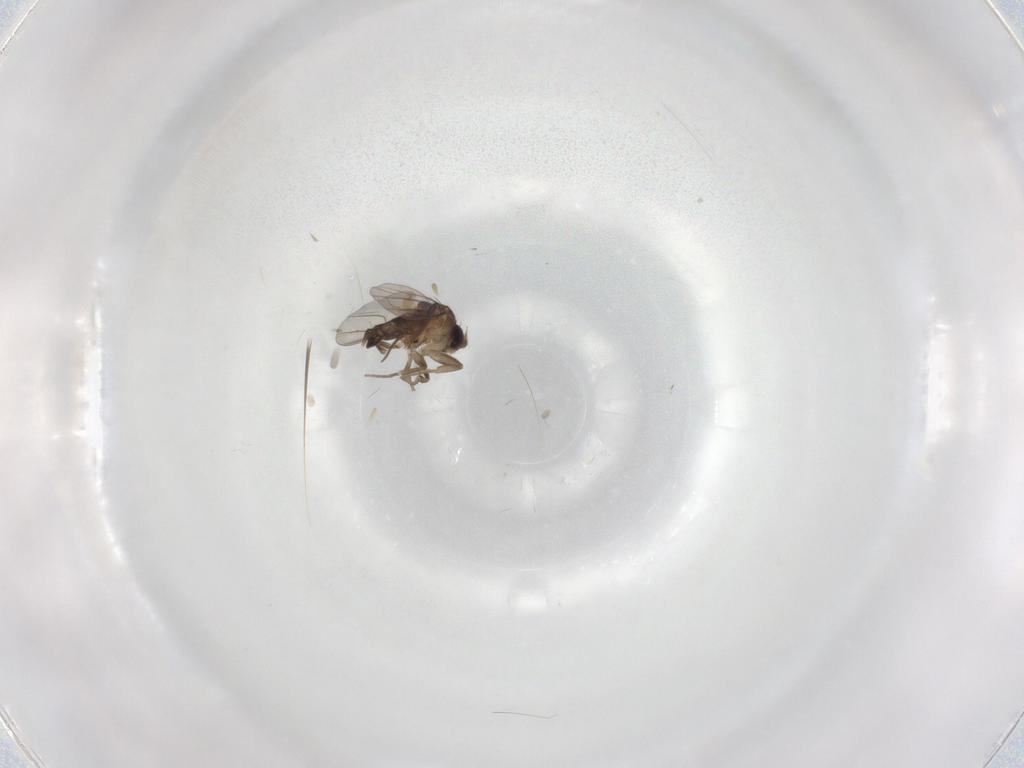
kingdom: Animalia
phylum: Arthropoda
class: Insecta
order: Diptera
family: Phoridae
